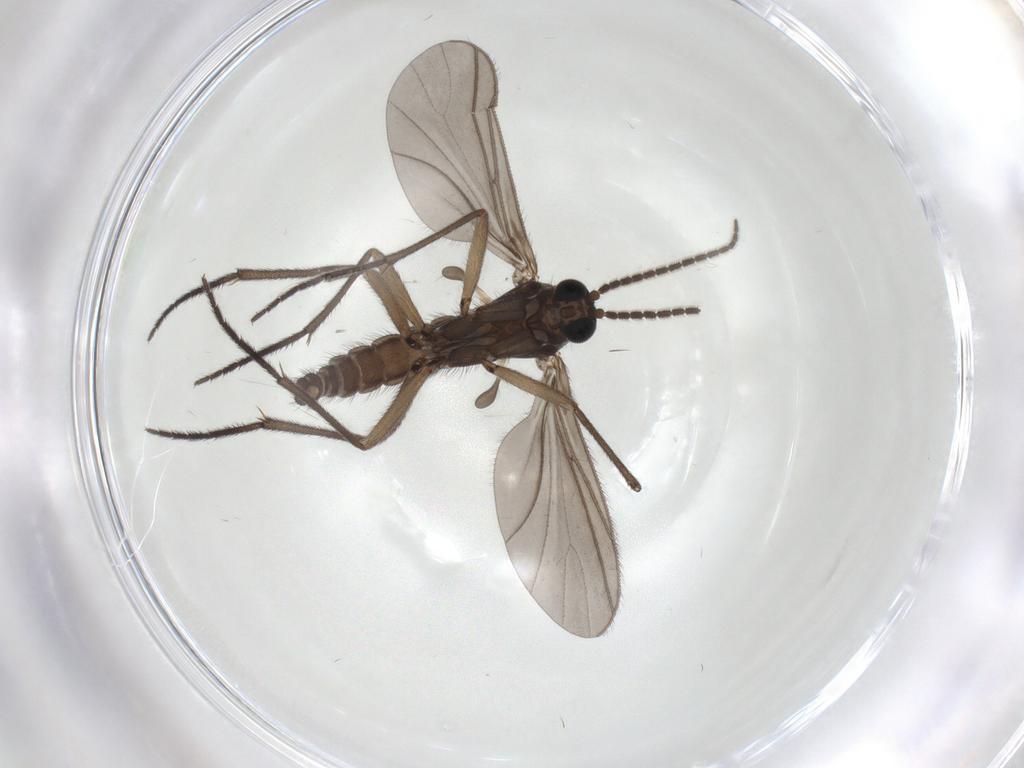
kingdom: Animalia
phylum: Arthropoda
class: Insecta
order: Diptera
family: Sciaridae
